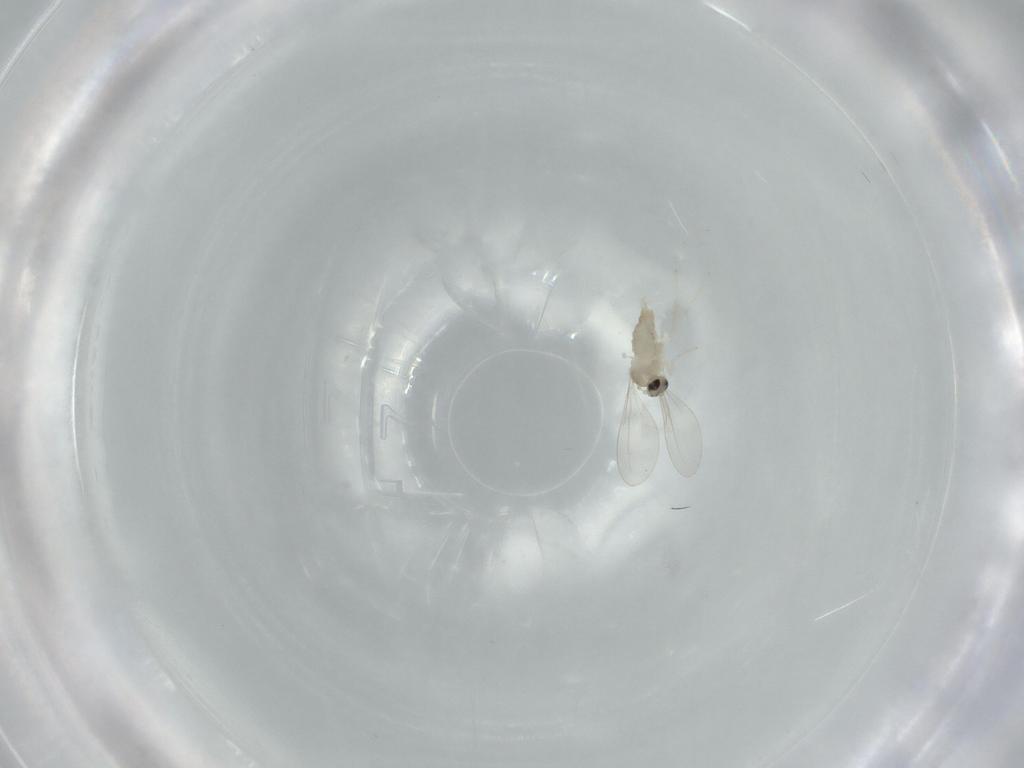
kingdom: Animalia
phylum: Arthropoda
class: Insecta
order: Diptera
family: Cecidomyiidae
